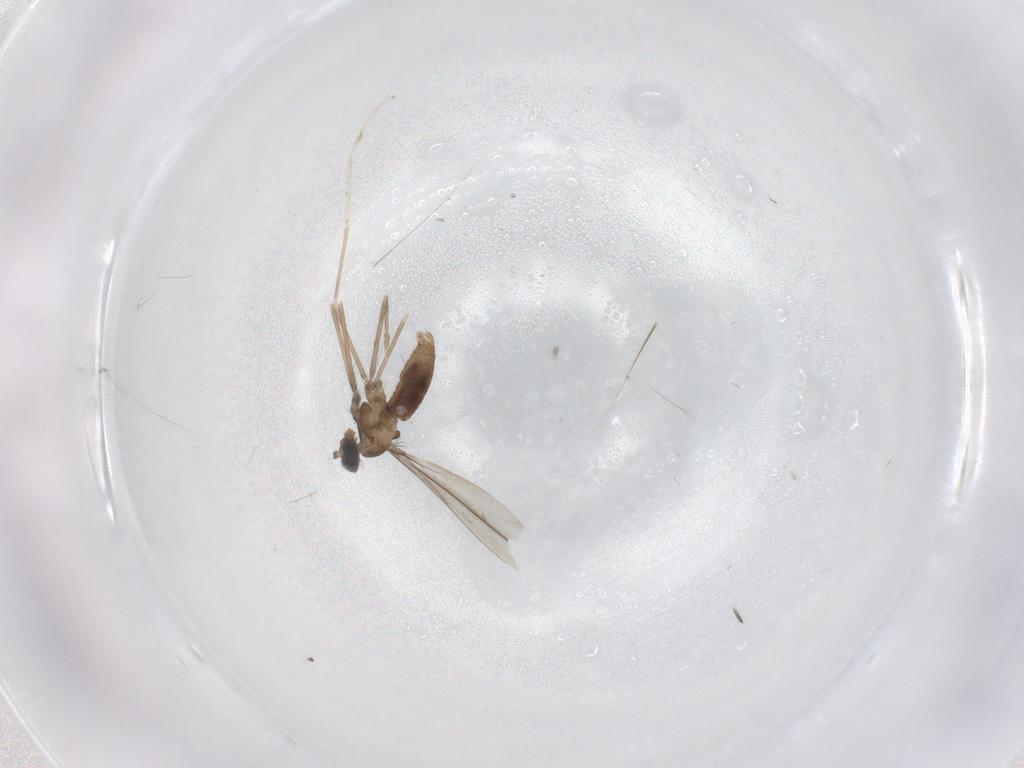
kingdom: Animalia
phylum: Arthropoda
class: Insecta
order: Diptera
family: Cecidomyiidae
